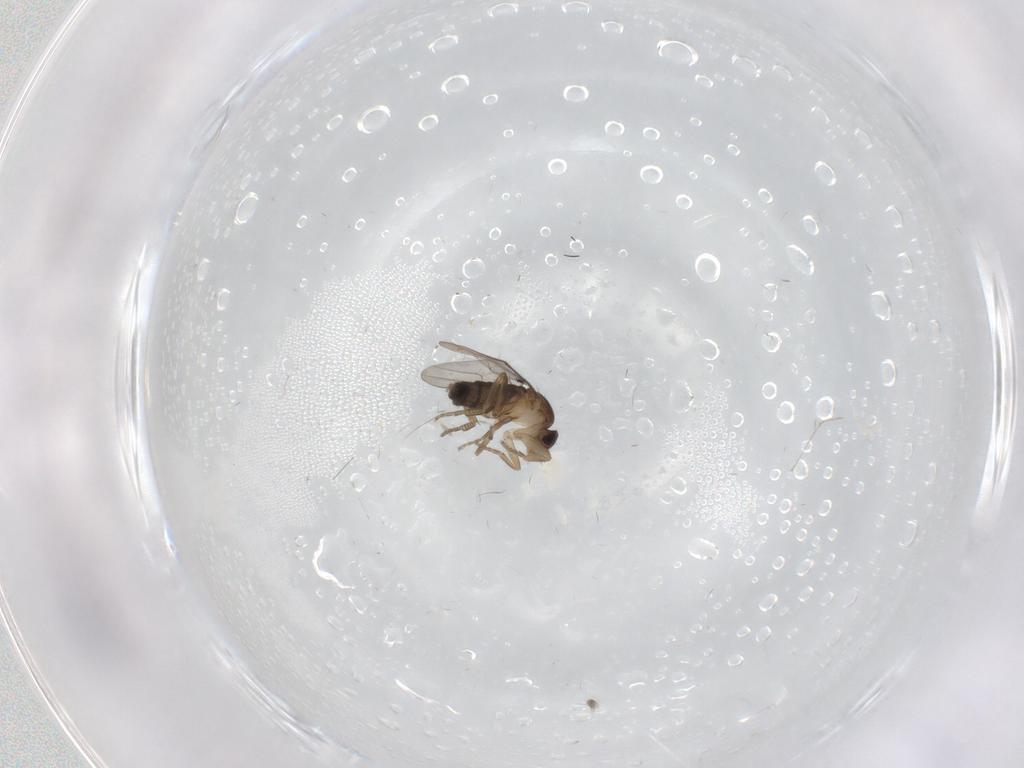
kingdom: Animalia
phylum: Arthropoda
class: Insecta
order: Diptera
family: Phoridae
